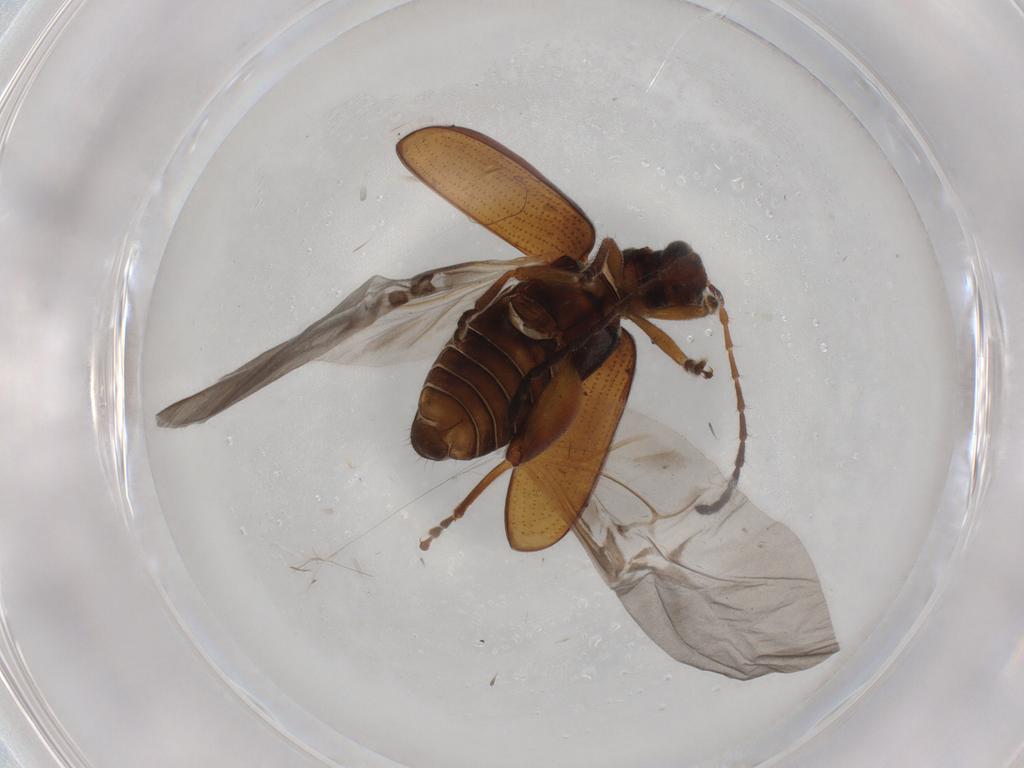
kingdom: Animalia
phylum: Arthropoda
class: Insecta
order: Coleoptera
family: Chrysomelidae
